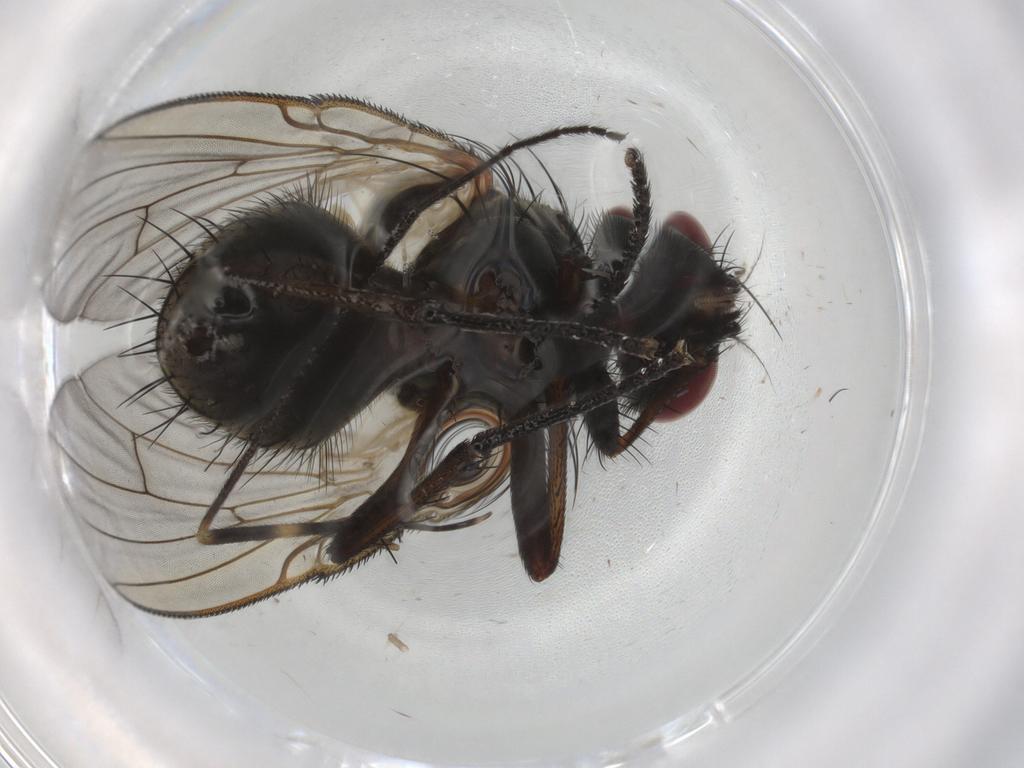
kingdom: Animalia
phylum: Arthropoda
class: Insecta
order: Diptera
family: Muscidae
